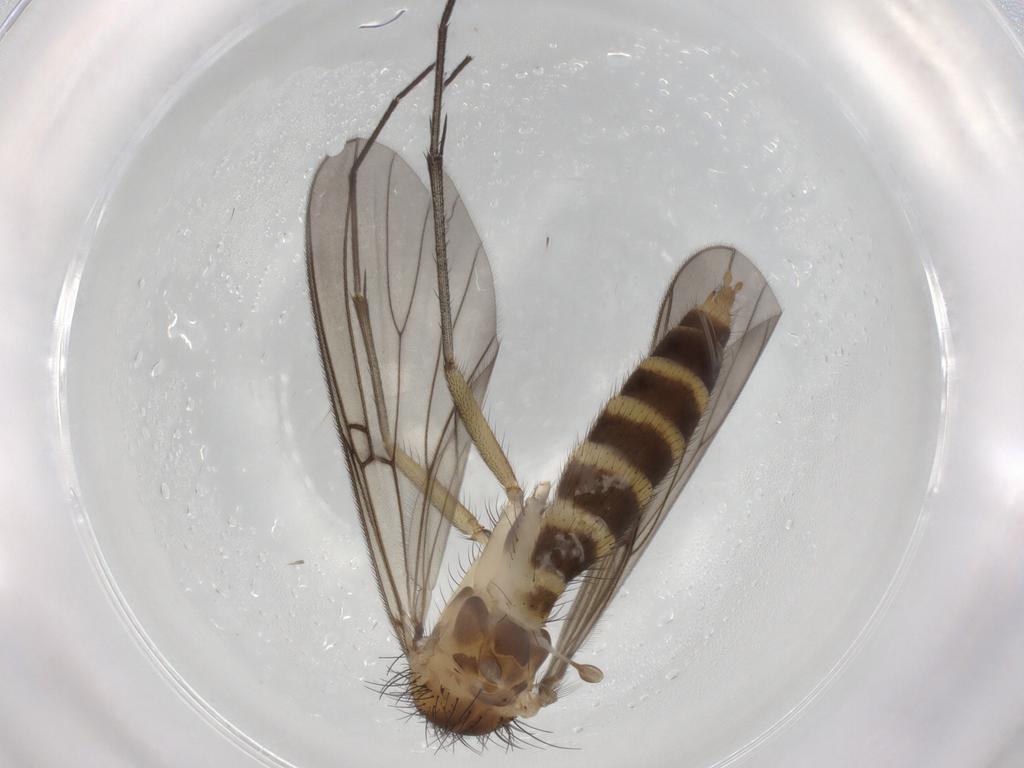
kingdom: Animalia
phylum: Arthropoda
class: Insecta
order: Diptera
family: Mycetophilidae
